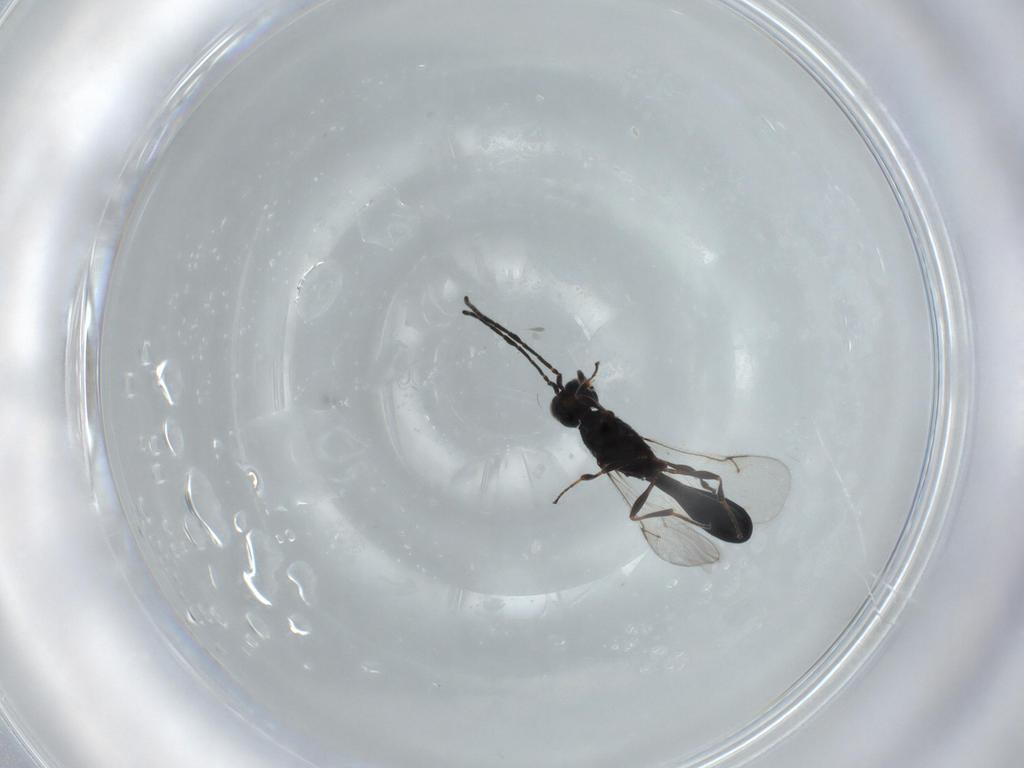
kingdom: Animalia
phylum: Arthropoda
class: Insecta
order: Hymenoptera
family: Scelionidae
